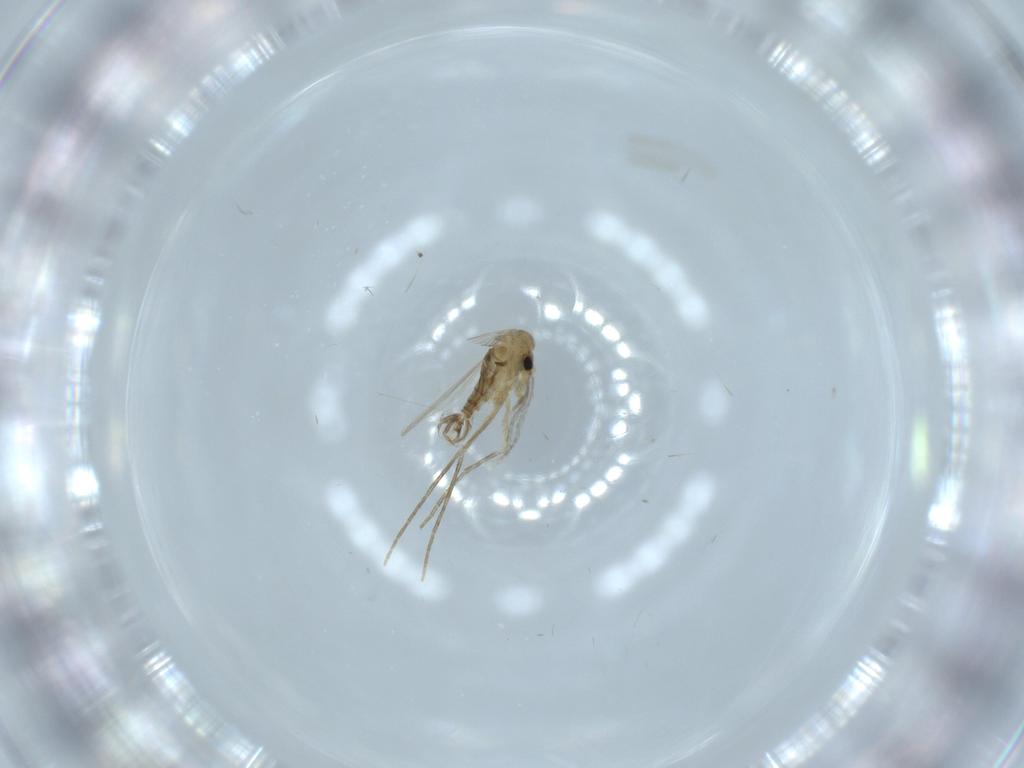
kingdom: Animalia
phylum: Arthropoda
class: Insecta
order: Diptera
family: Psychodidae
